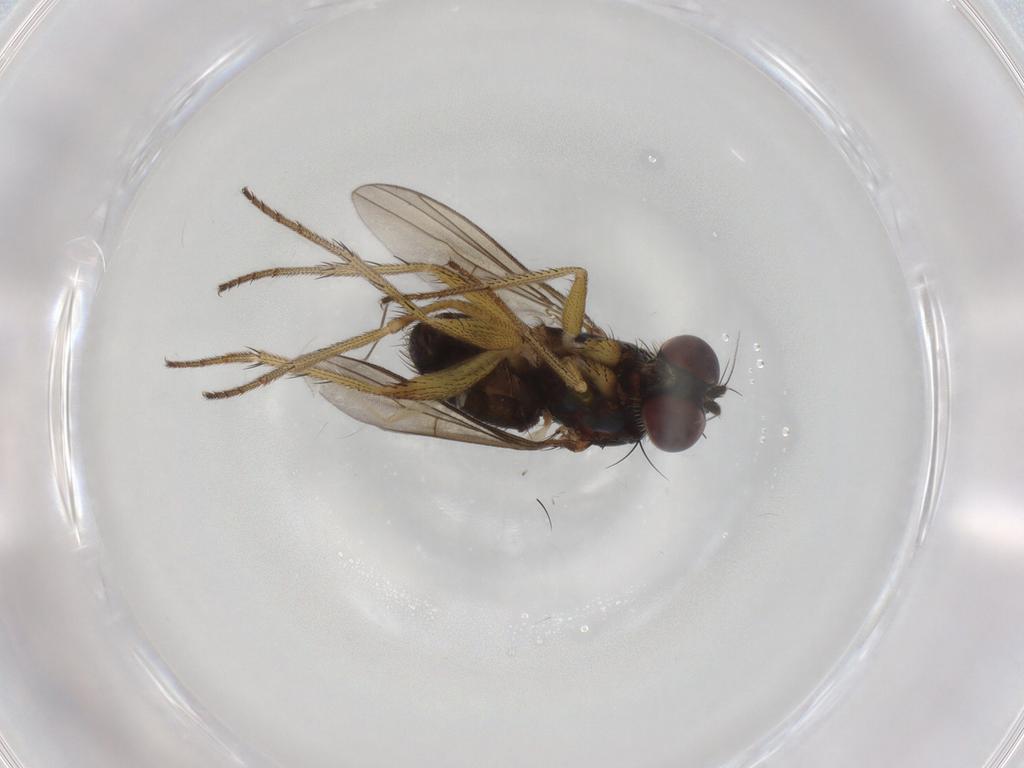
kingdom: Animalia
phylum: Arthropoda
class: Insecta
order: Diptera
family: Dolichopodidae
